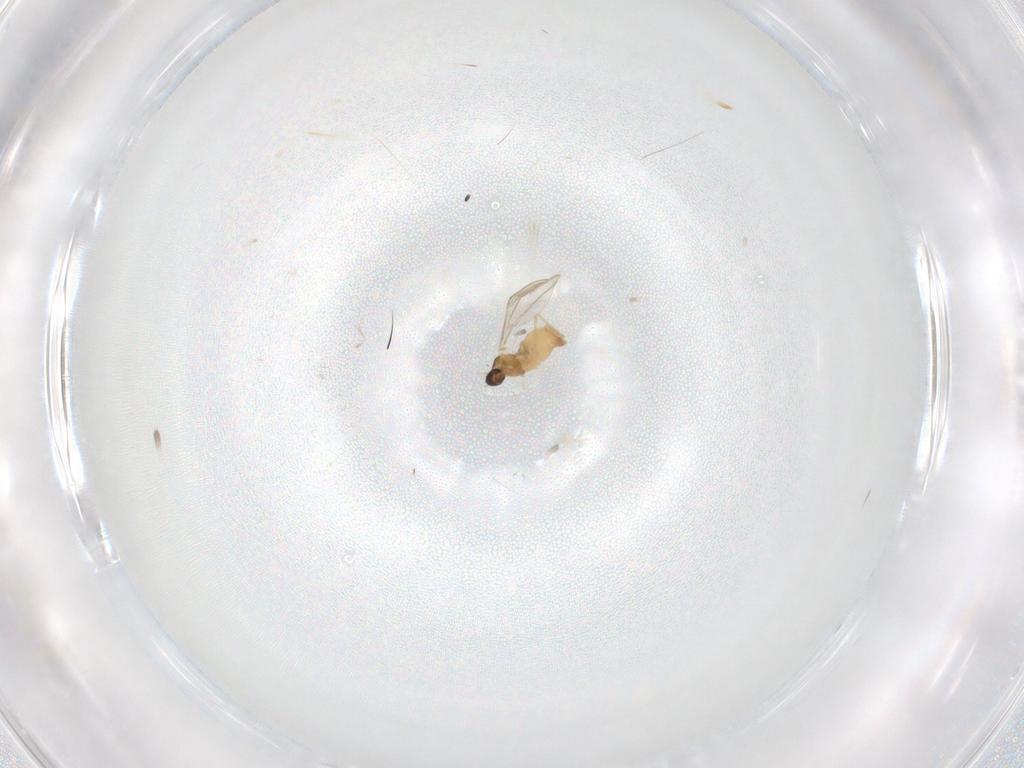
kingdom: Animalia
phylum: Arthropoda
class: Insecta
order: Diptera
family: Cecidomyiidae
